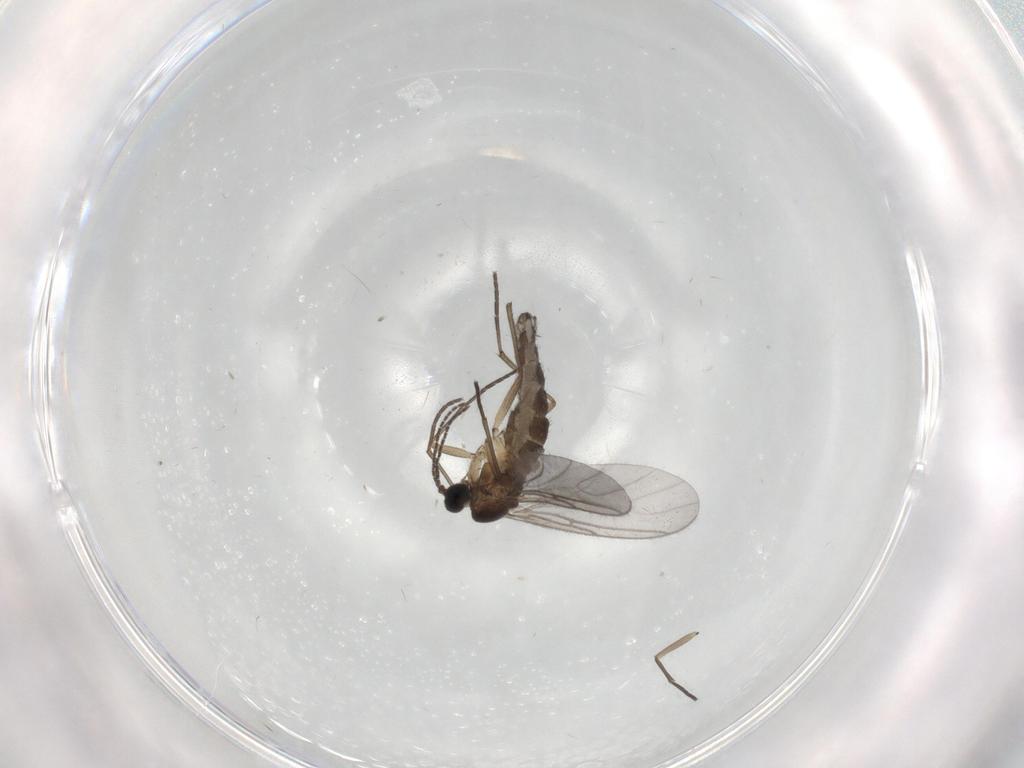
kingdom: Animalia
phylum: Arthropoda
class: Insecta
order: Diptera
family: Sciaridae
